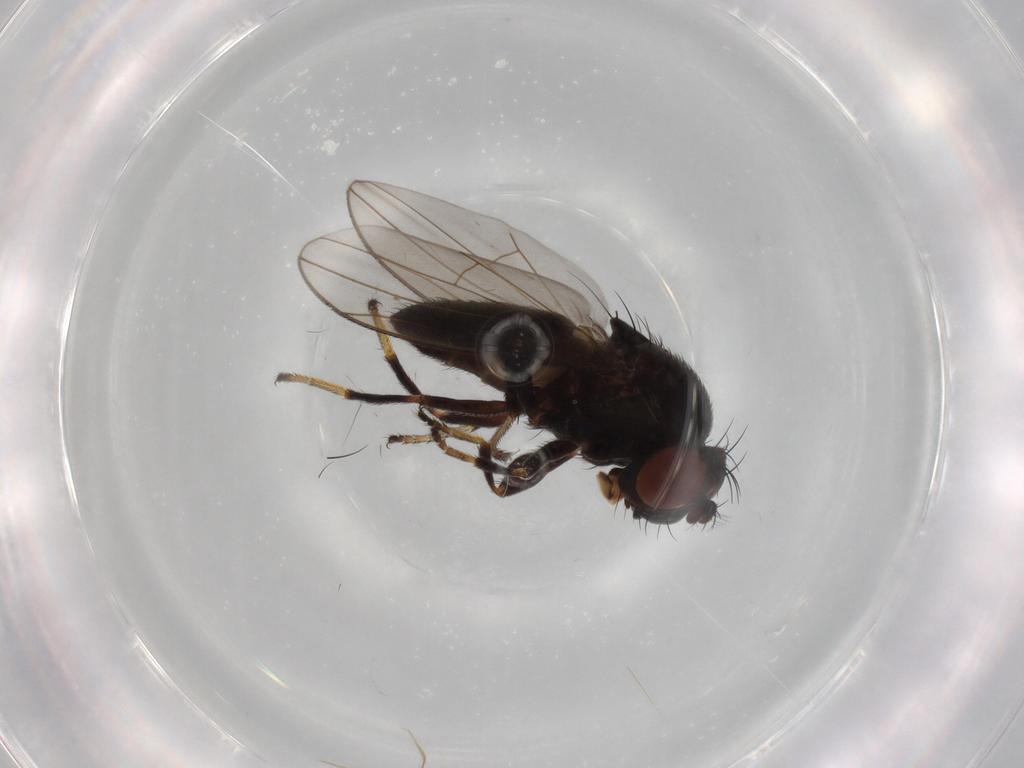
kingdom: Animalia
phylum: Arthropoda
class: Insecta
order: Diptera
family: Ephydridae
